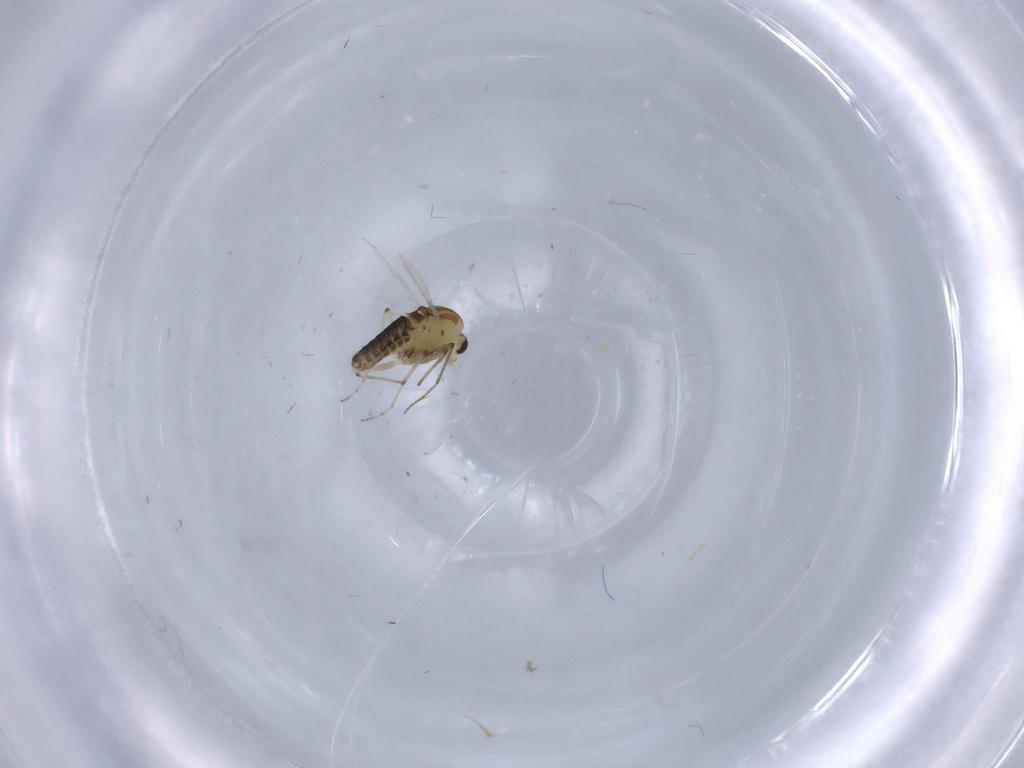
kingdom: Animalia
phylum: Arthropoda
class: Insecta
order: Diptera
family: Chironomidae
